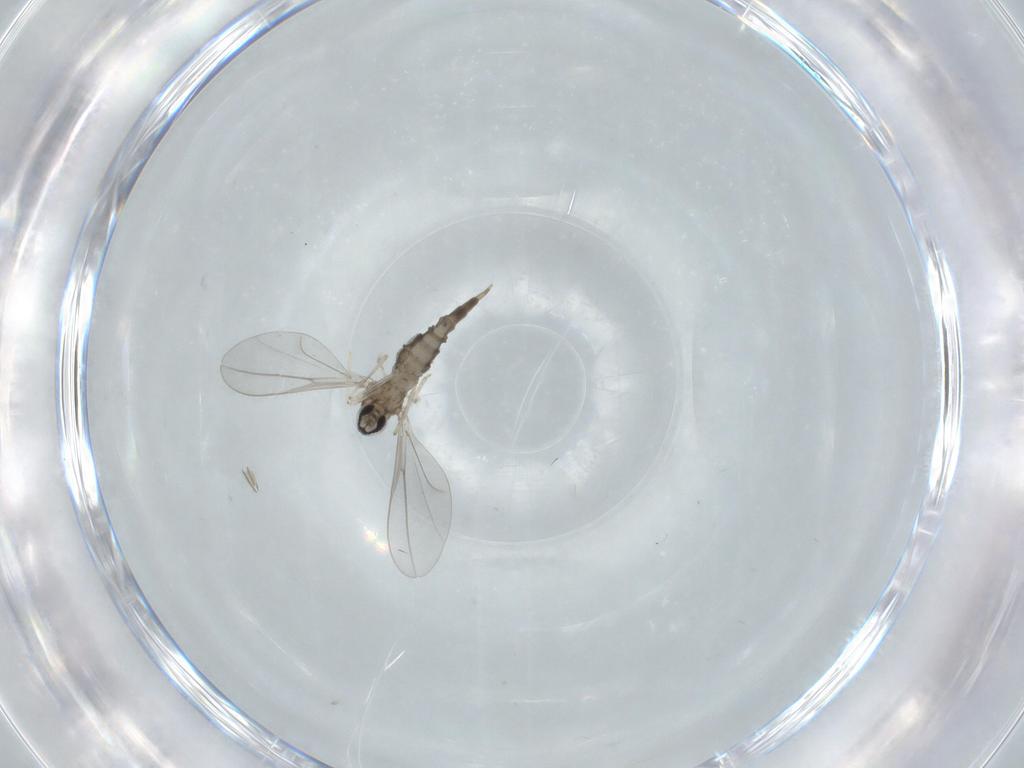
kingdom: Animalia
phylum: Arthropoda
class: Insecta
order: Diptera
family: Cecidomyiidae
